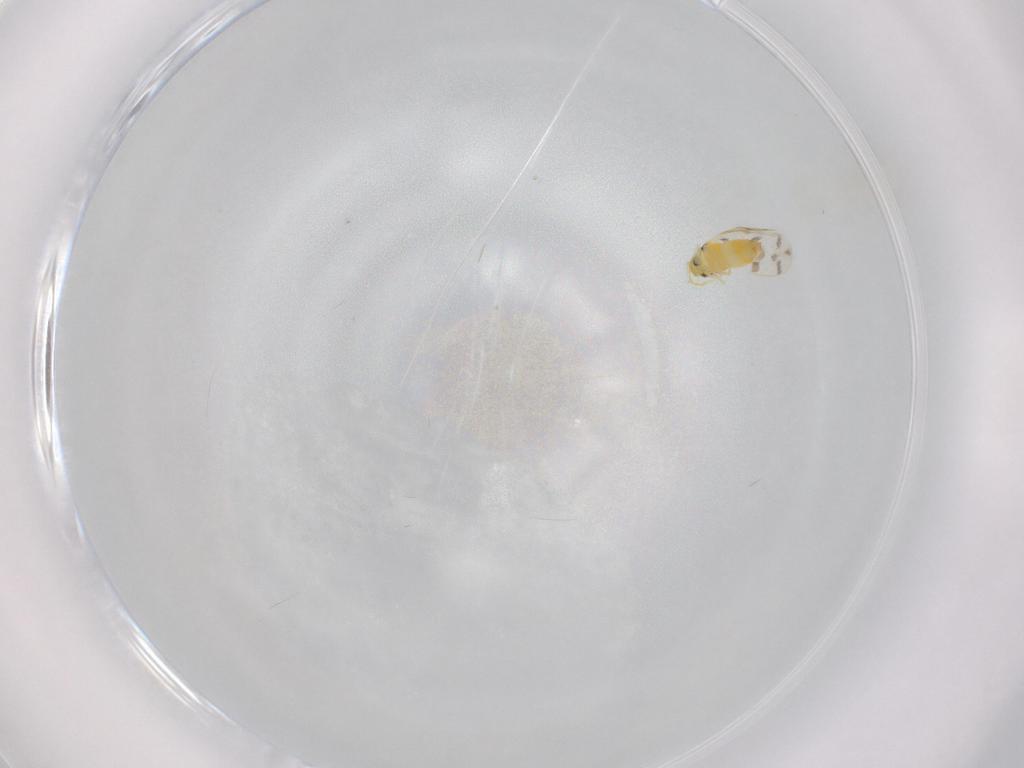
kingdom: Animalia
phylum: Arthropoda
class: Insecta
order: Hemiptera
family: Aleyrodidae
